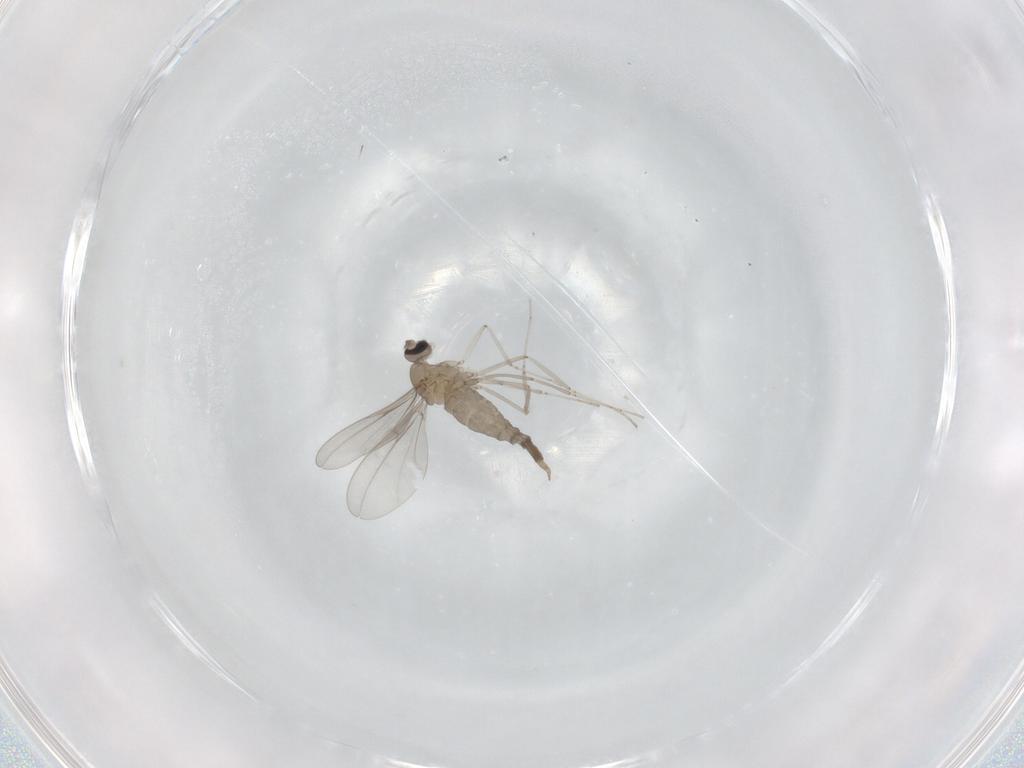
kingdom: Animalia
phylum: Arthropoda
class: Insecta
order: Diptera
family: Cecidomyiidae
